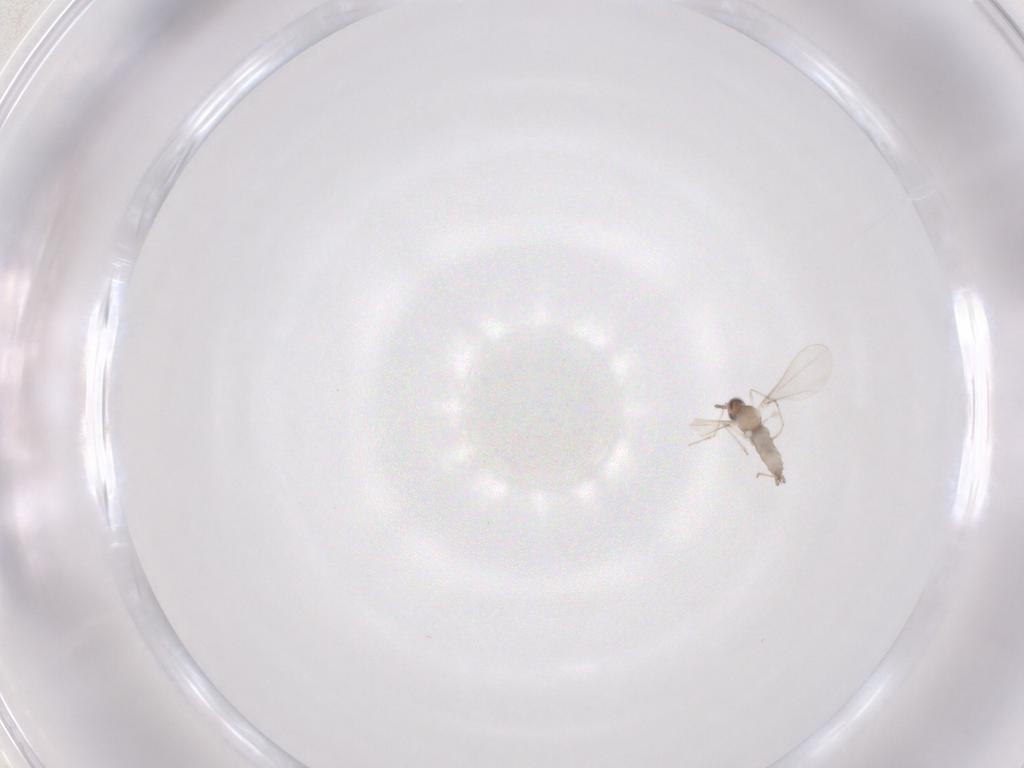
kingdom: Animalia
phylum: Arthropoda
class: Insecta
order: Diptera
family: Cecidomyiidae
